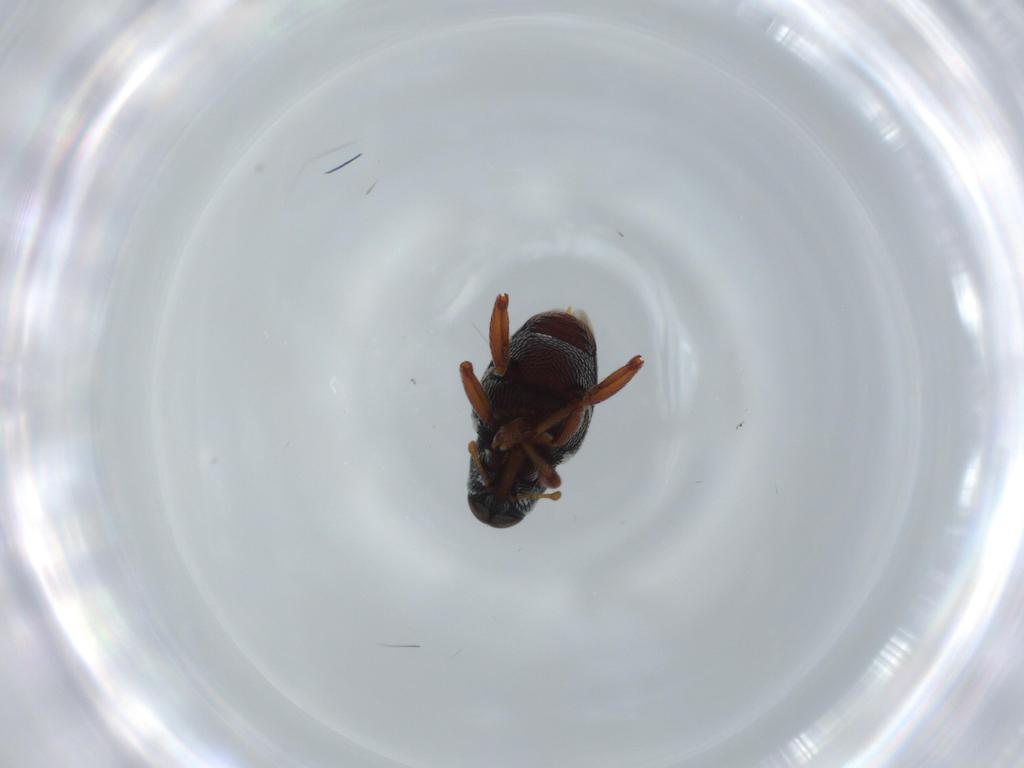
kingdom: Animalia
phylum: Arthropoda
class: Insecta
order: Coleoptera
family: Curculionidae
